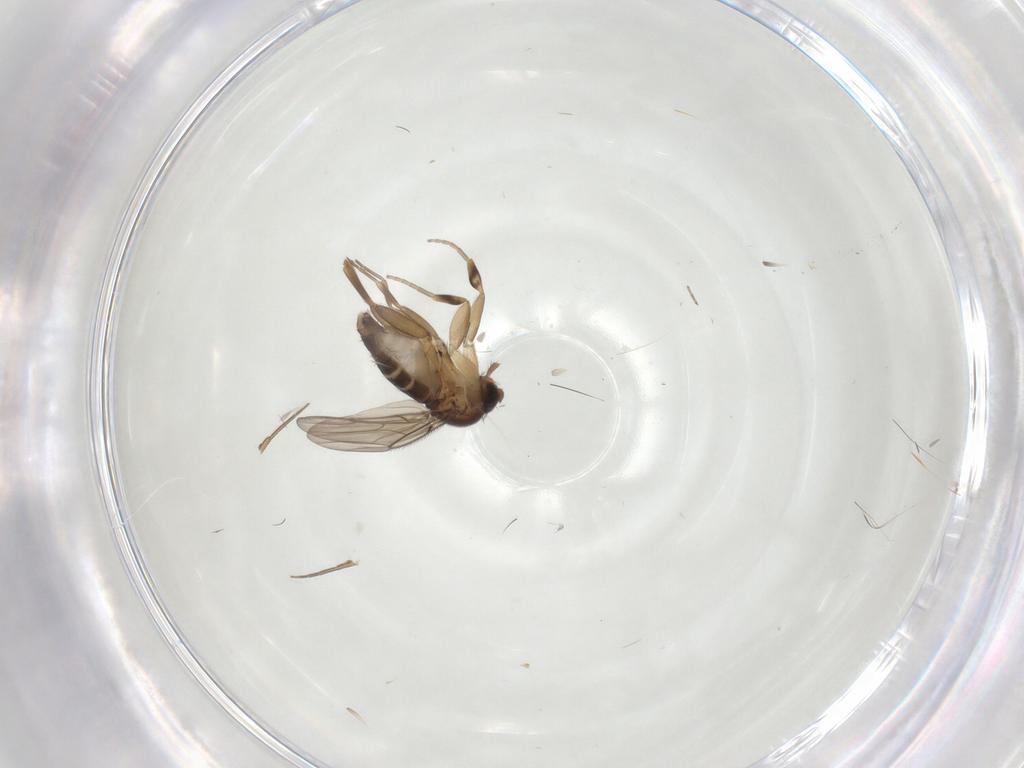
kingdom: Animalia
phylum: Arthropoda
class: Insecta
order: Diptera
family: Phoridae
